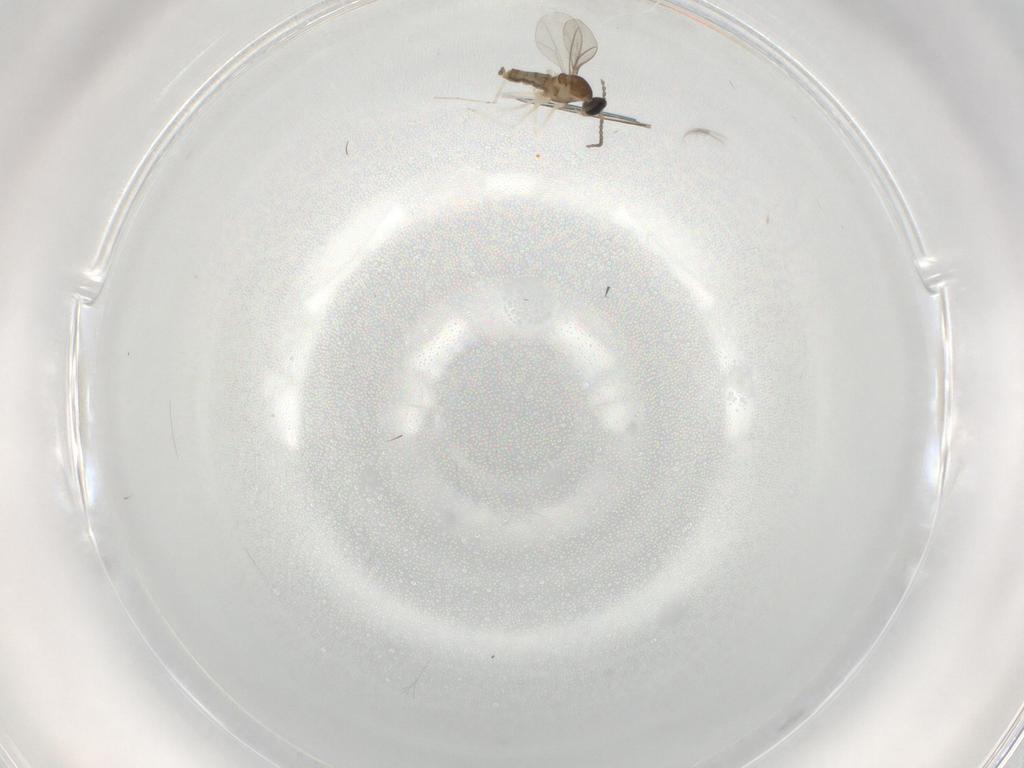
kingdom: Animalia
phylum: Arthropoda
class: Insecta
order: Diptera
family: Cecidomyiidae
